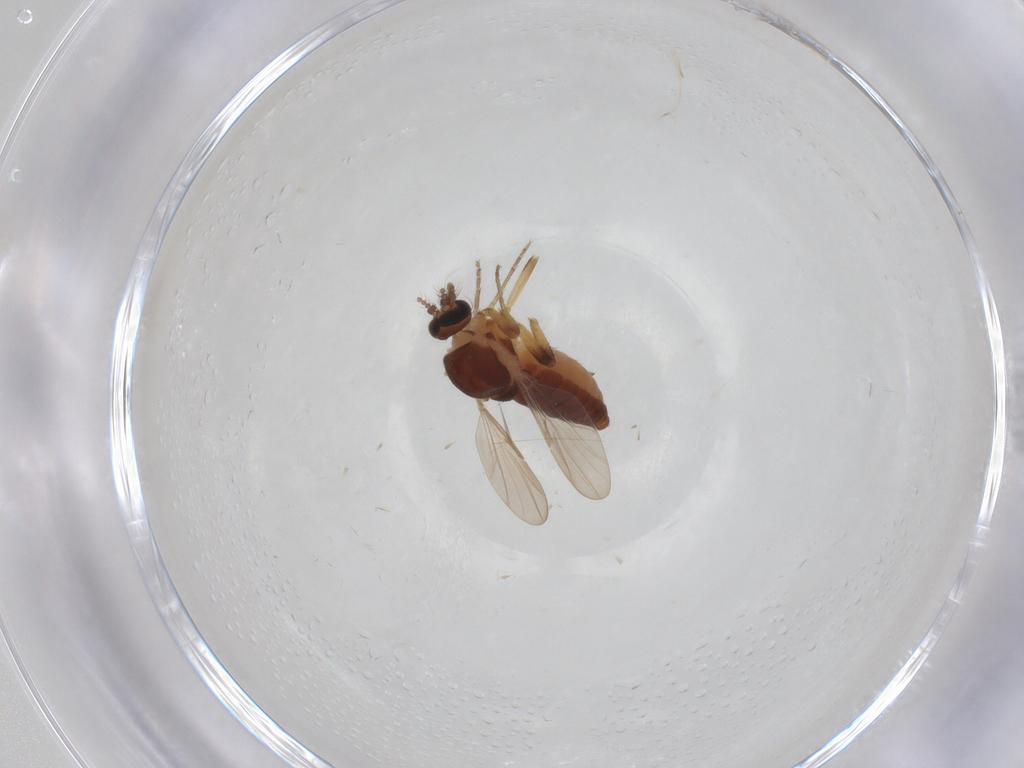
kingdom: Animalia
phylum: Arthropoda
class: Insecta
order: Diptera
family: Ceratopogonidae
